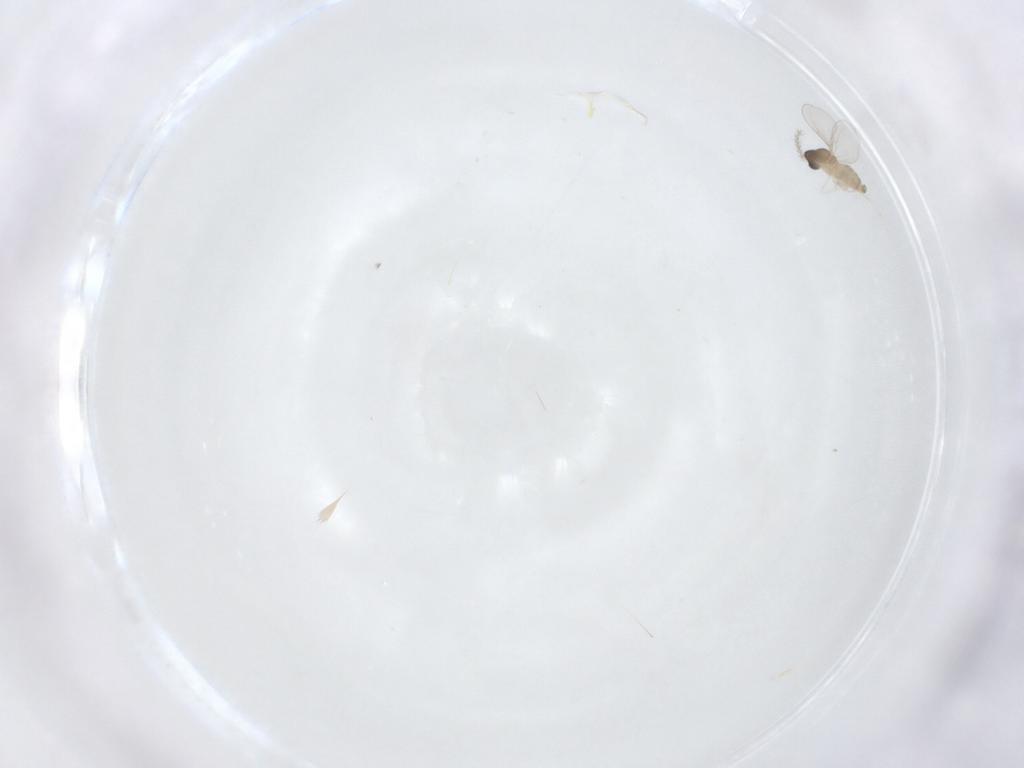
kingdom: Animalia
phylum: Arthropoda
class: Insecta
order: Diptera
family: Cecidomyiidae
